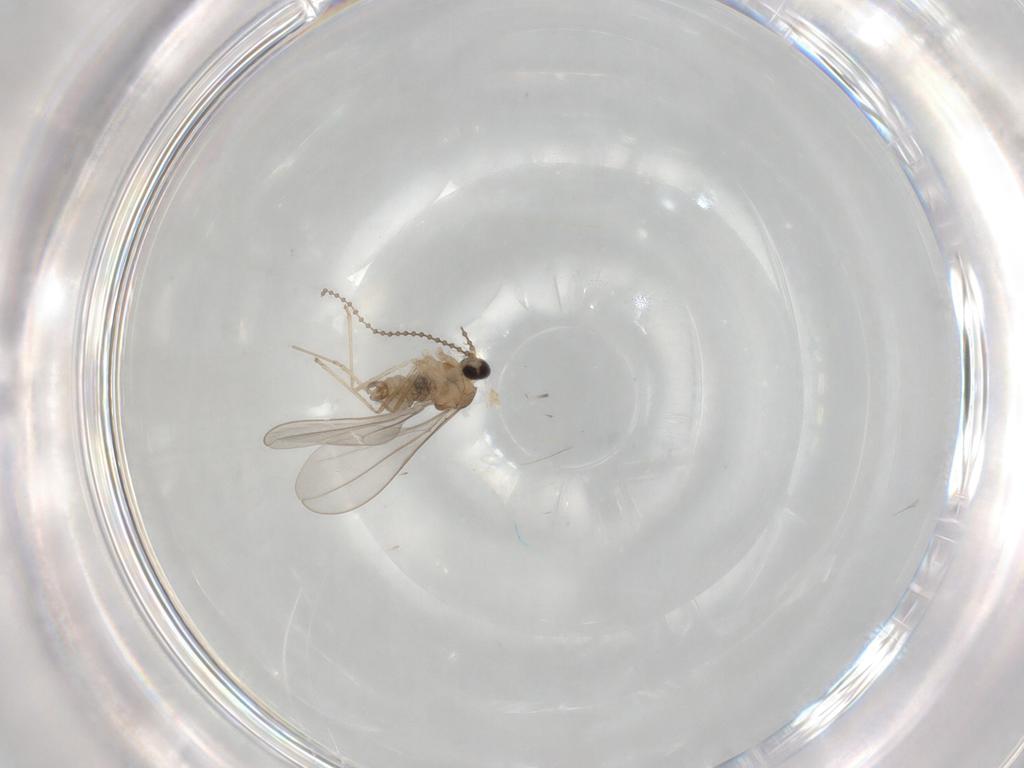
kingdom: Animalia
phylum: Arthropoda
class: Insecta
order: Diptera
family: Cecidomyiidae
